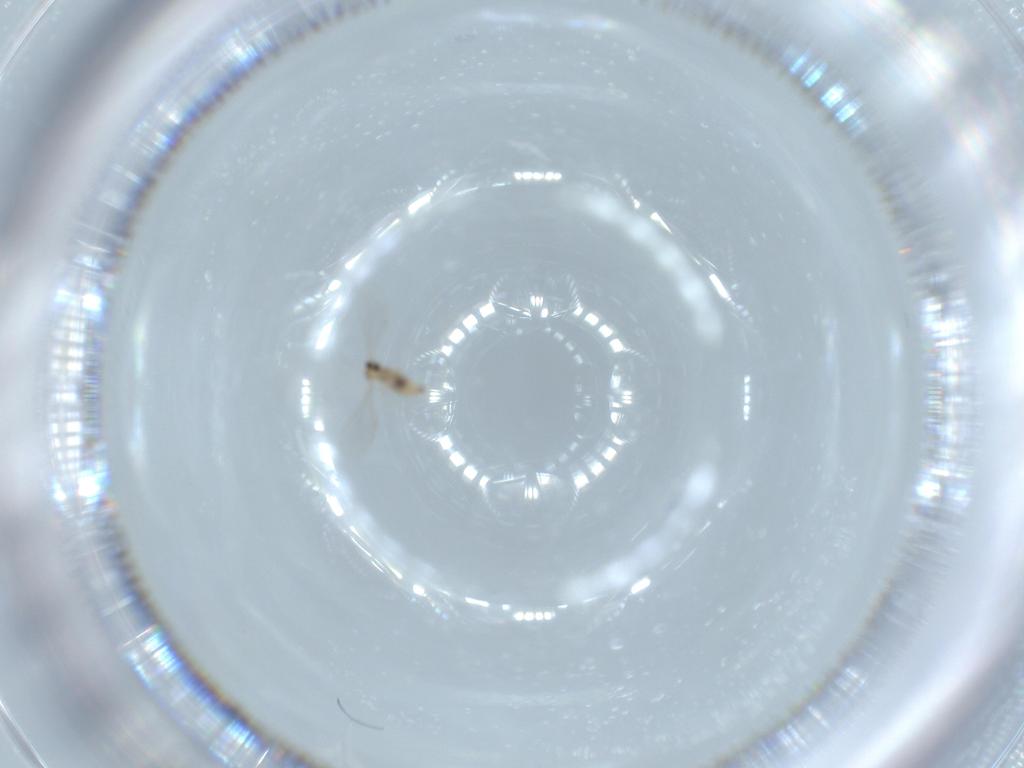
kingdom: Animalia
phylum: Arthropoda
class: Insecta
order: Diptera
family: Cecidomyiidae
